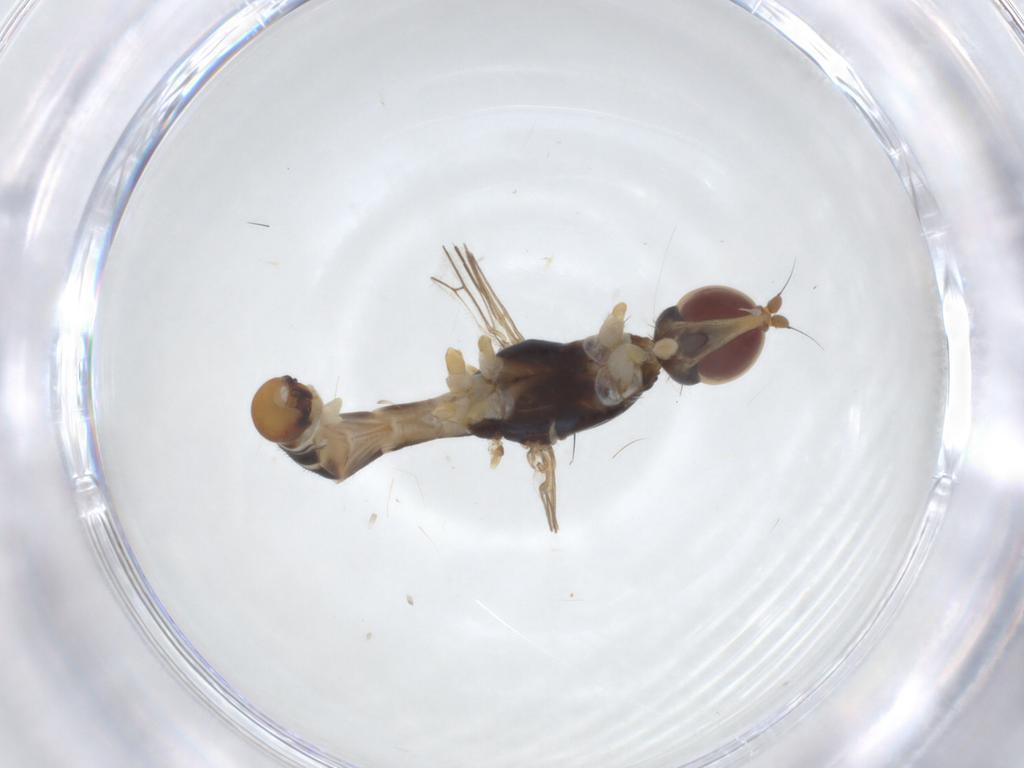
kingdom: Animalia
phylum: Arthropoda
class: Insecta
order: Diptera
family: Micropezidae
